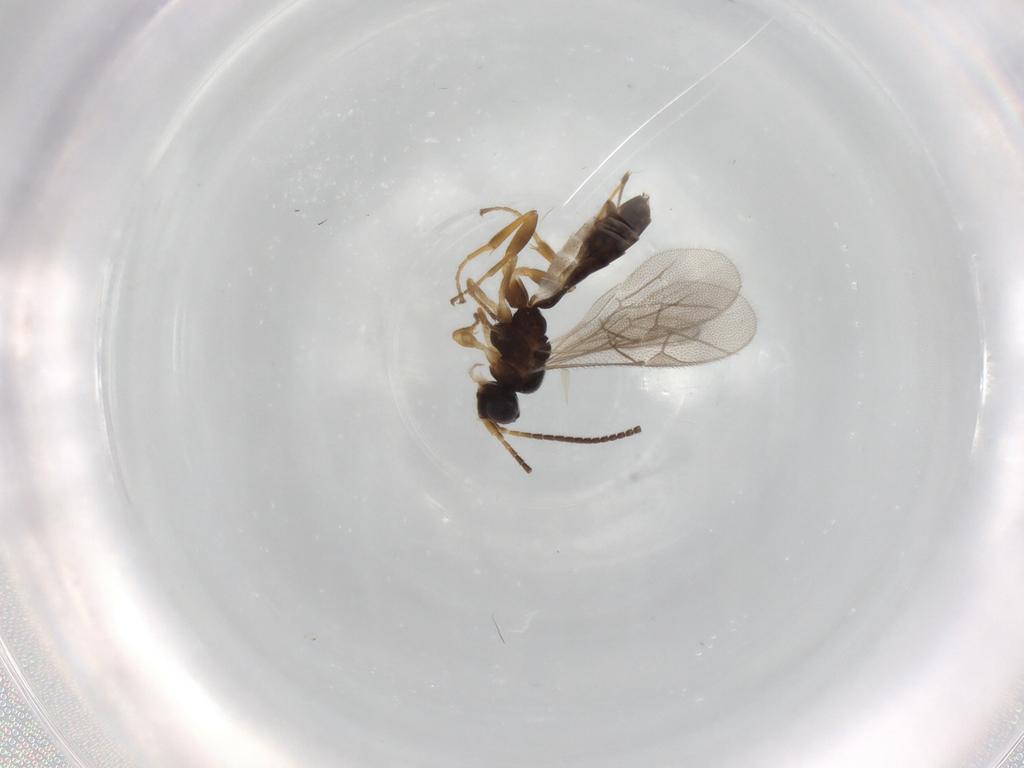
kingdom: Animalia
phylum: Arthropoda
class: Insecta
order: Hymenoptera
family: Ichneumonidae
